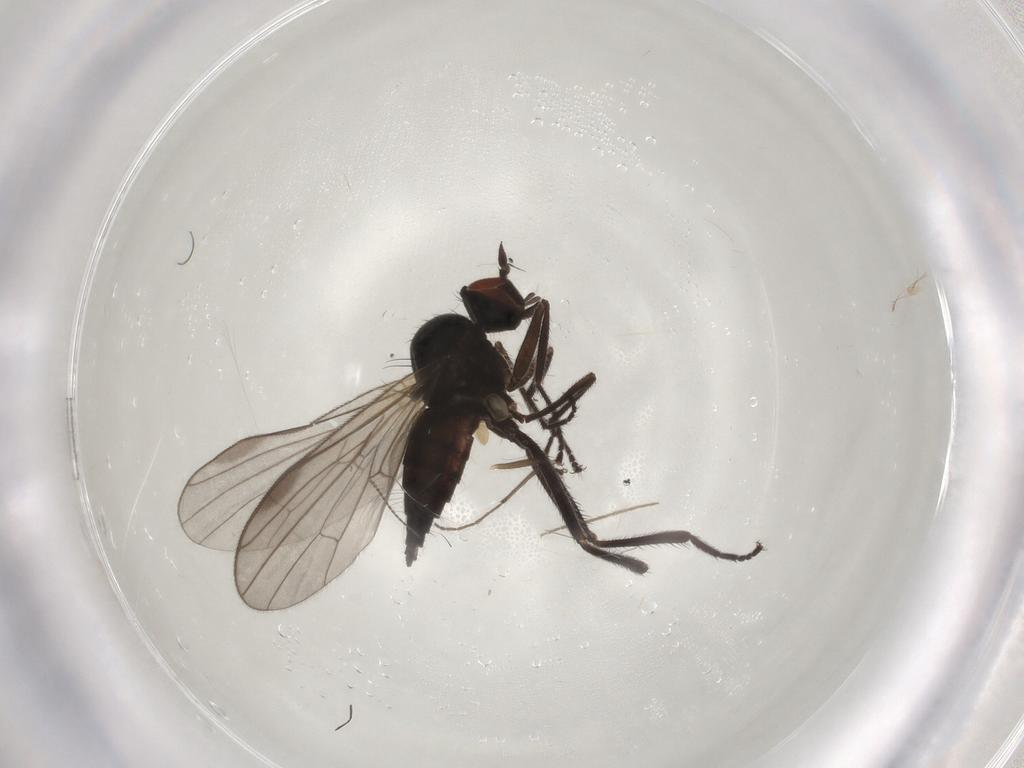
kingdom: Animalia
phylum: Arthropoda
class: Insecta
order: Diptera
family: Hybotidae
